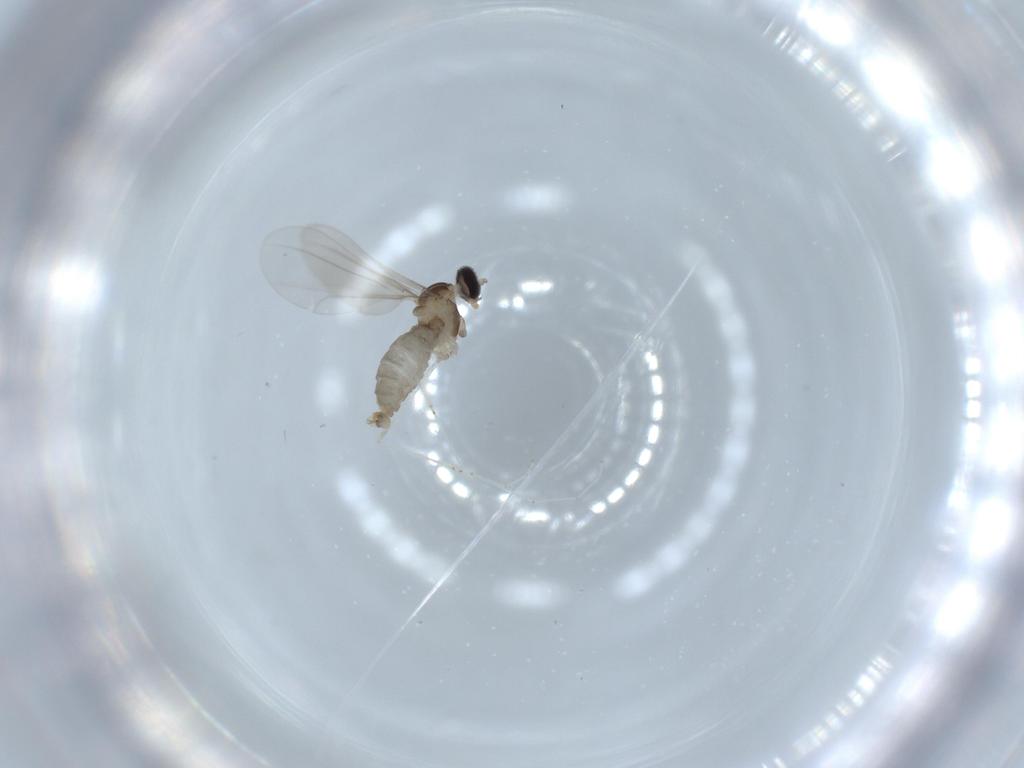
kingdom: Animalia
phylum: Arthropoda
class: Insecta
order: Diptera
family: Cecidomyiidae
